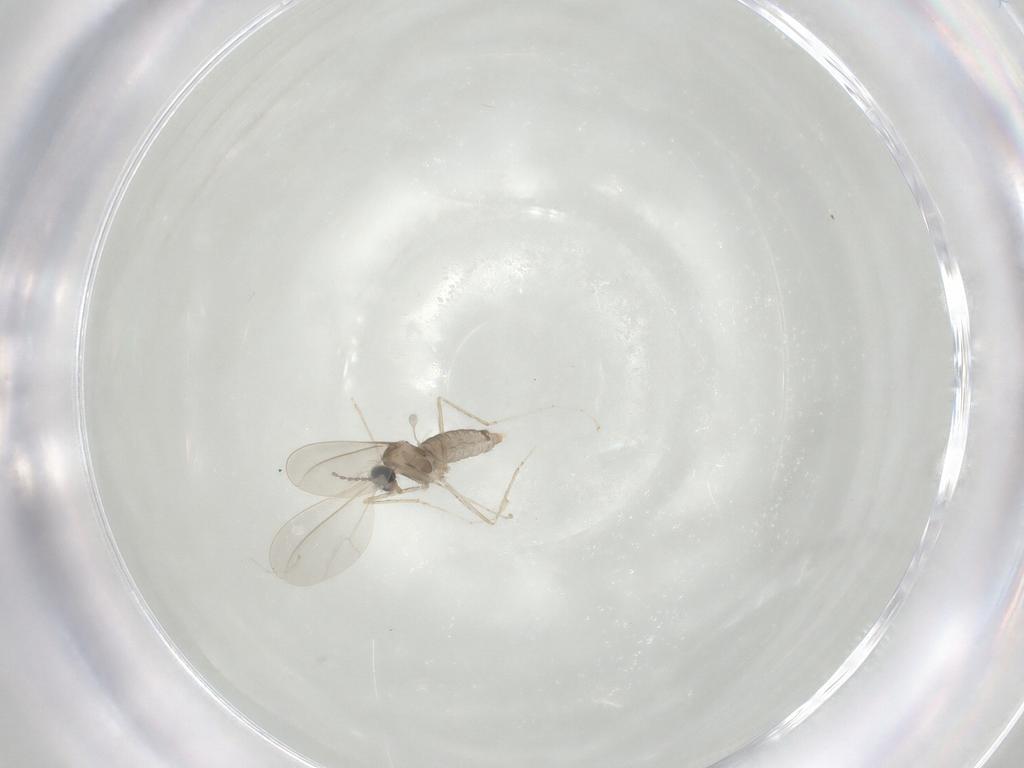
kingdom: Animalia
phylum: Arthropoda
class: Insecta
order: Diptera
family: Cecidomyiidae
